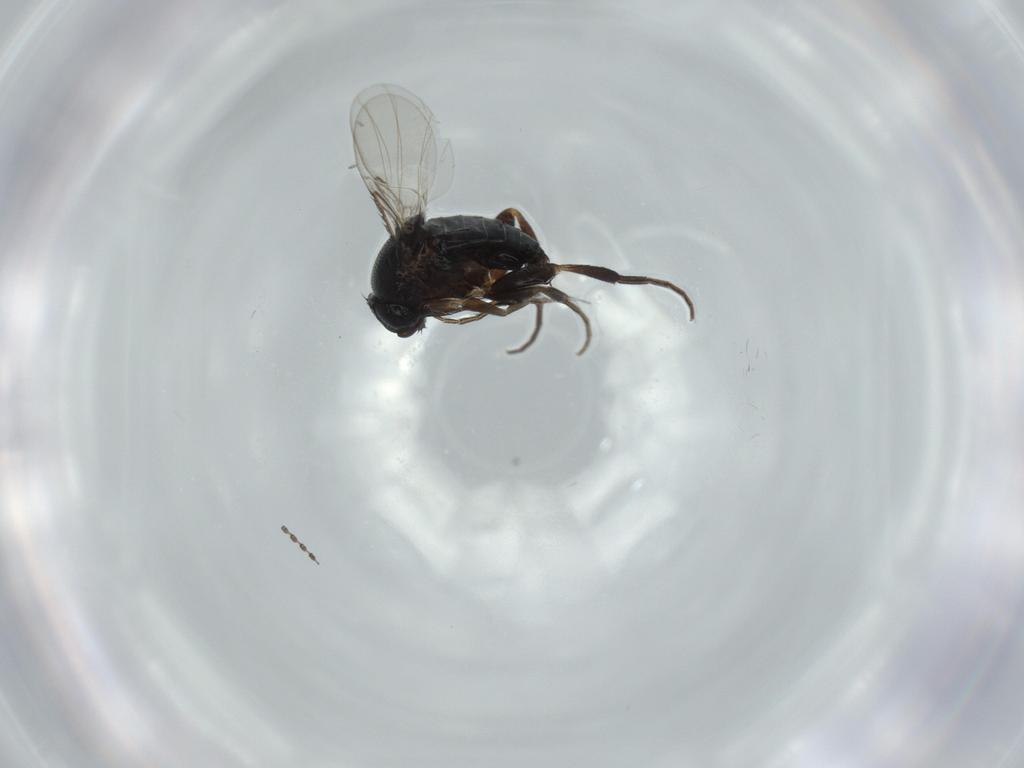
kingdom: Animalia
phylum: Arthropoda
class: Insecta
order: Diptera
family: Phoridae
